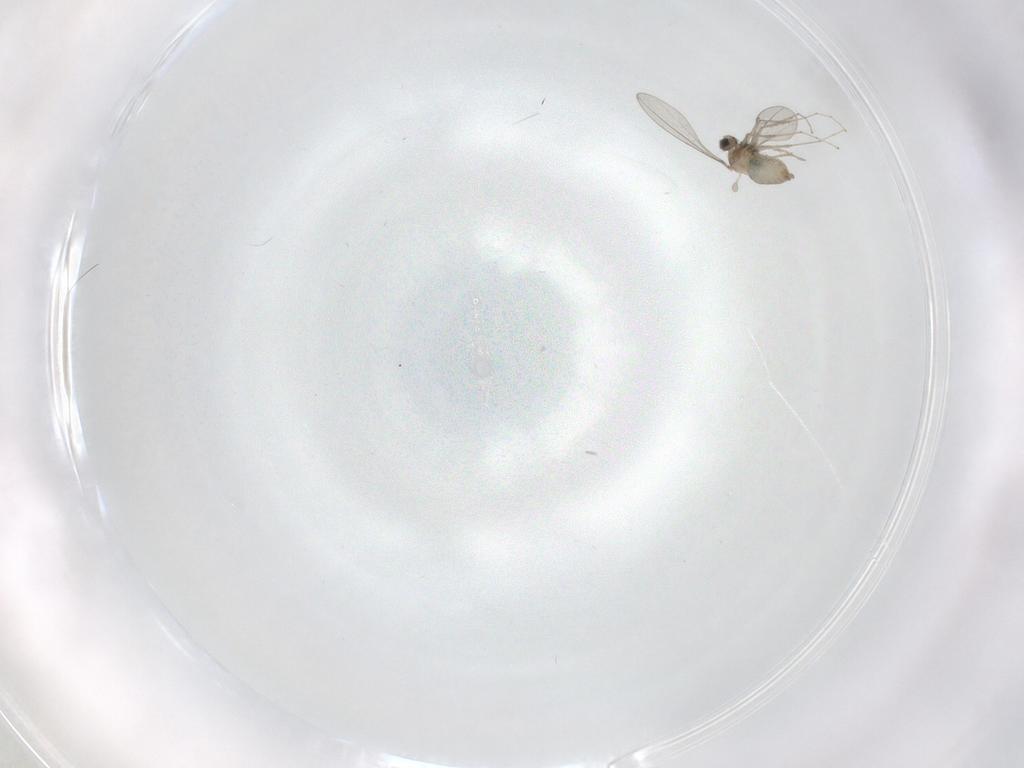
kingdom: Animalia
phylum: Arthropoda
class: Insecta
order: Diptera
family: Cecidomyiidae
